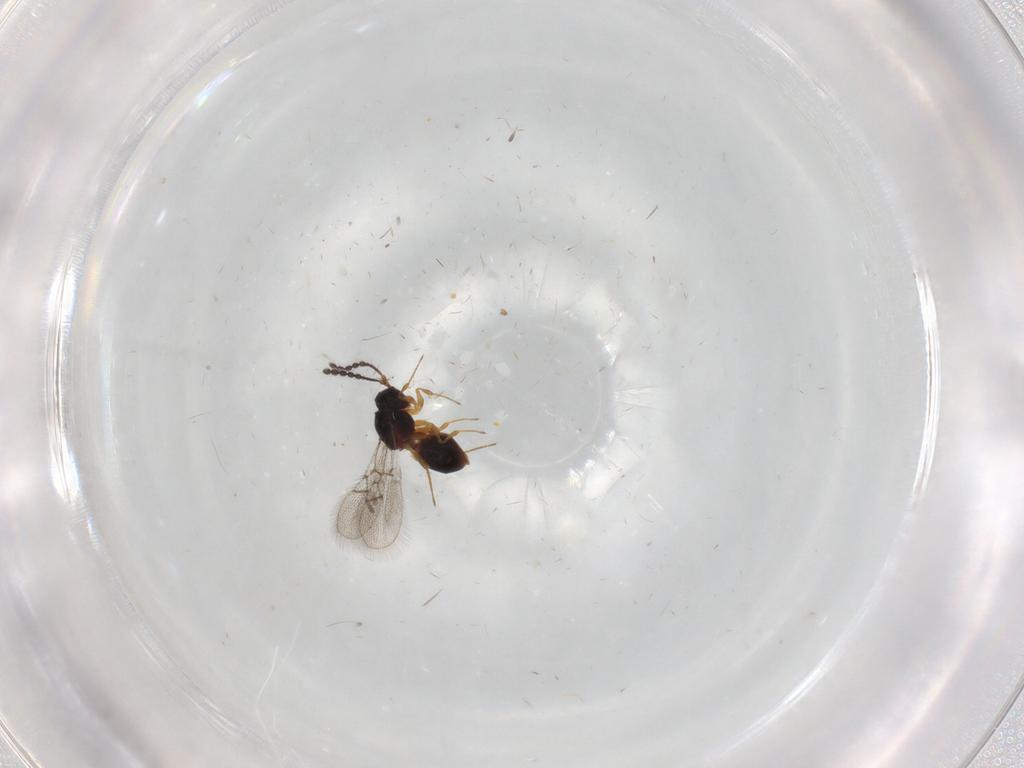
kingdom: Animalia
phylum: Arthropoda
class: Insecta
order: Hymenoptera
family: Figitidae
